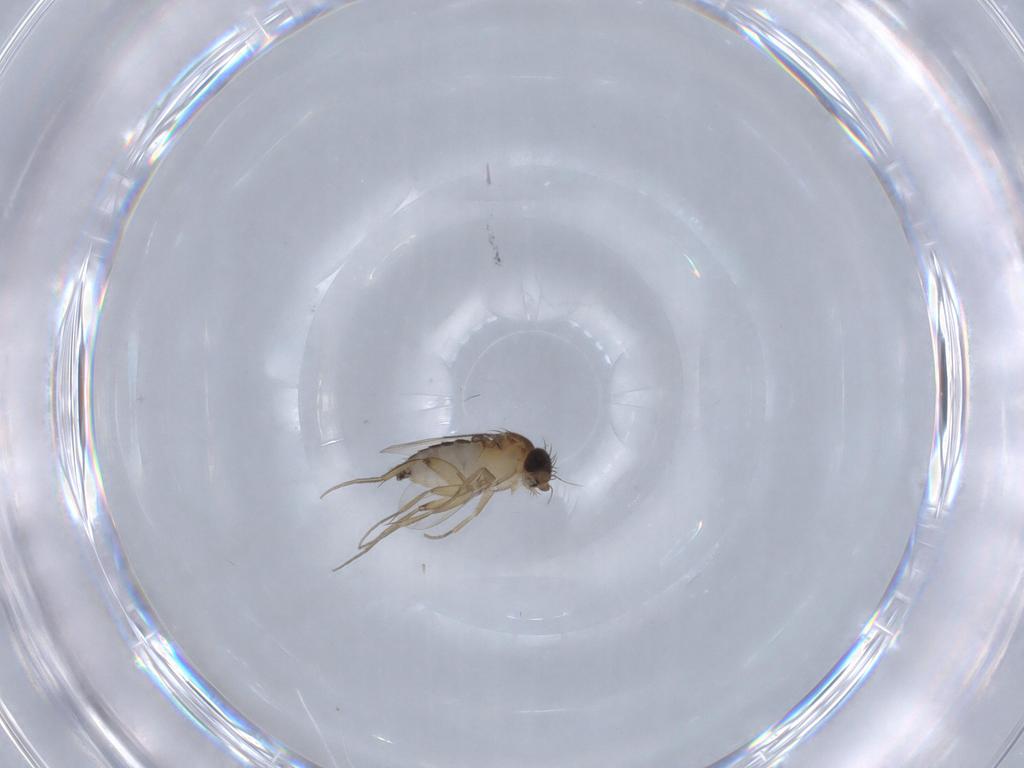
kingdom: Animalia
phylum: Arthropoda
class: Insecta
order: Diptera
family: Phoridae
